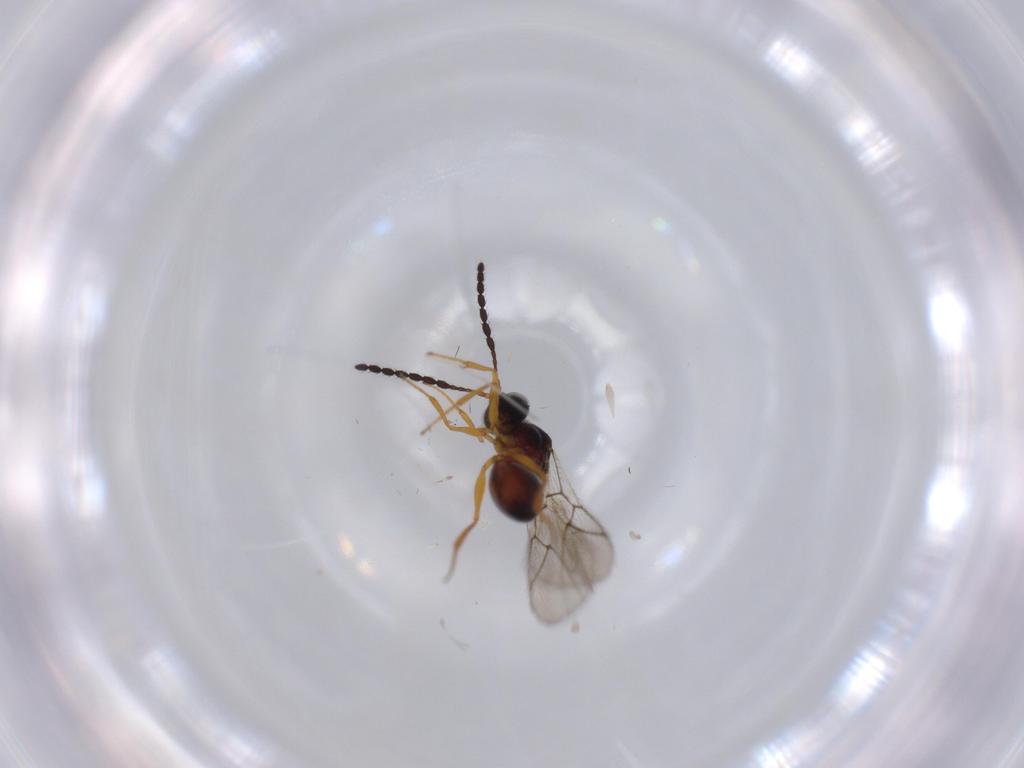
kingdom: Animalia
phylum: Arthropoda
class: Insecta
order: Hymenoptera
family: Figitidae
